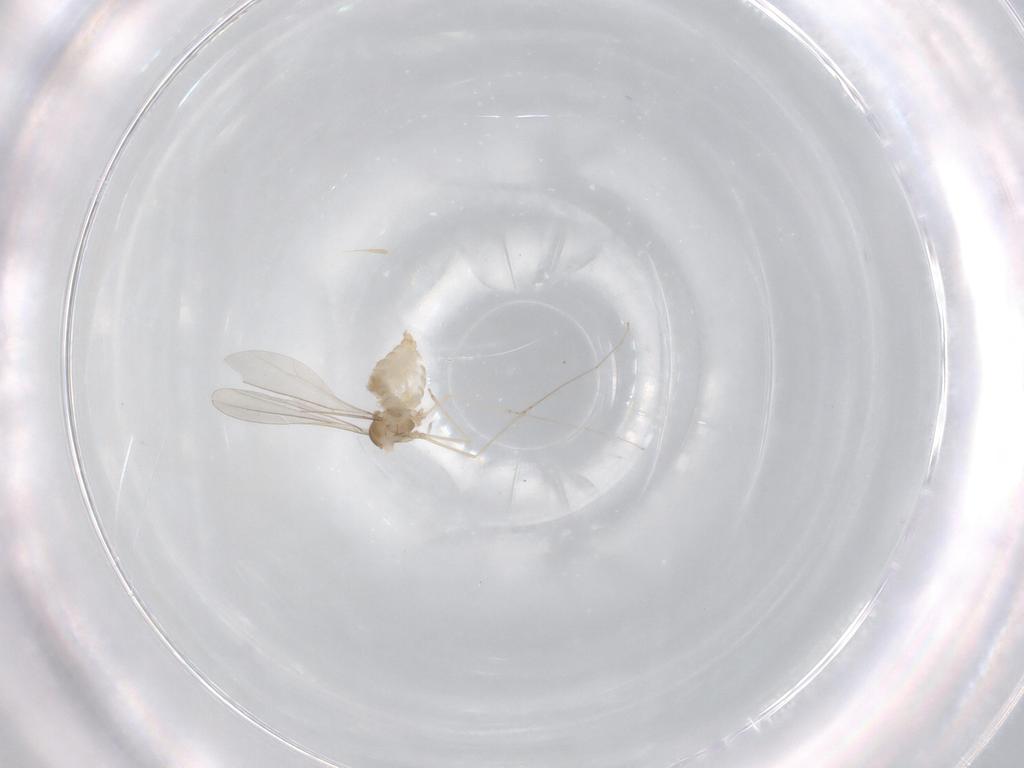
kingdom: Animalia
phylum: Arthropoda
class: Insecta
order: Diptera
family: Cecidomyiidae
